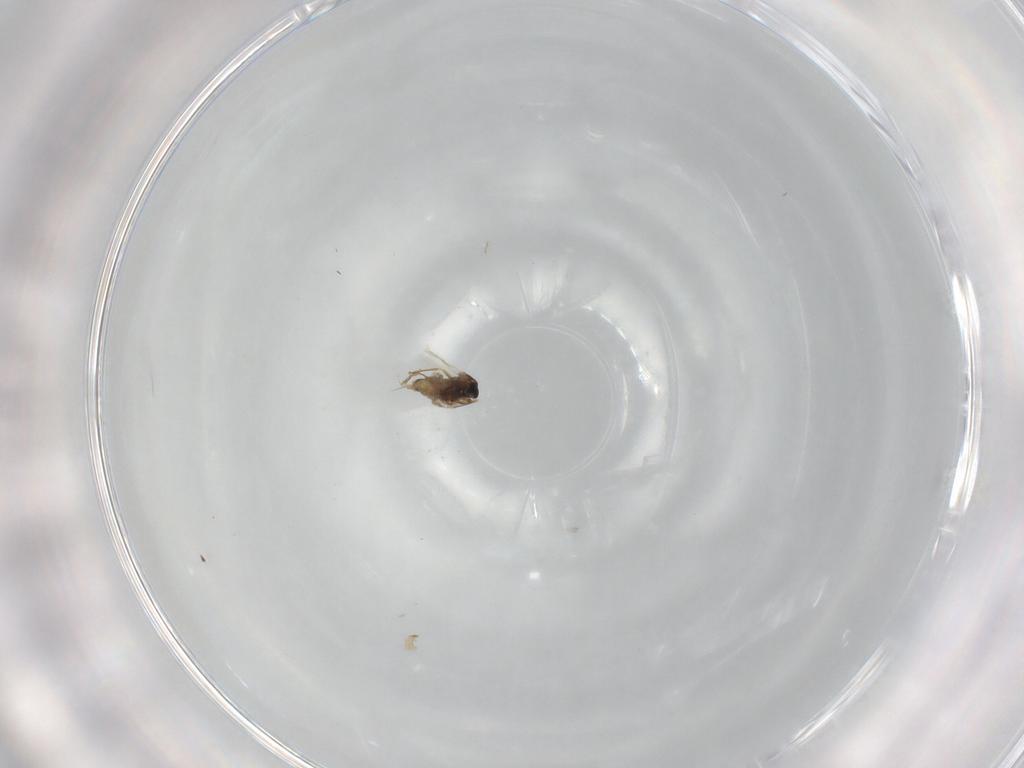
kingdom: Animalia
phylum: Arthropoda
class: Insecta
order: Diptera
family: Cecidomyiidae
